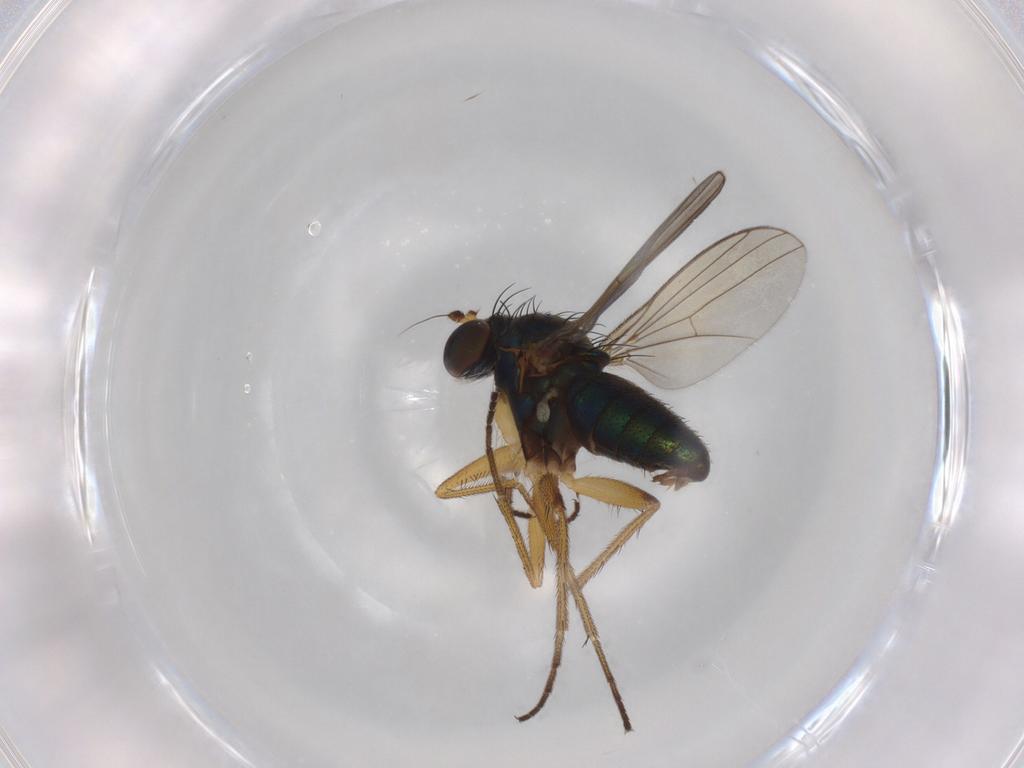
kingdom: Animalia
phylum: Arthropoda
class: Insecta
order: Diptera
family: Dolichopodidae
